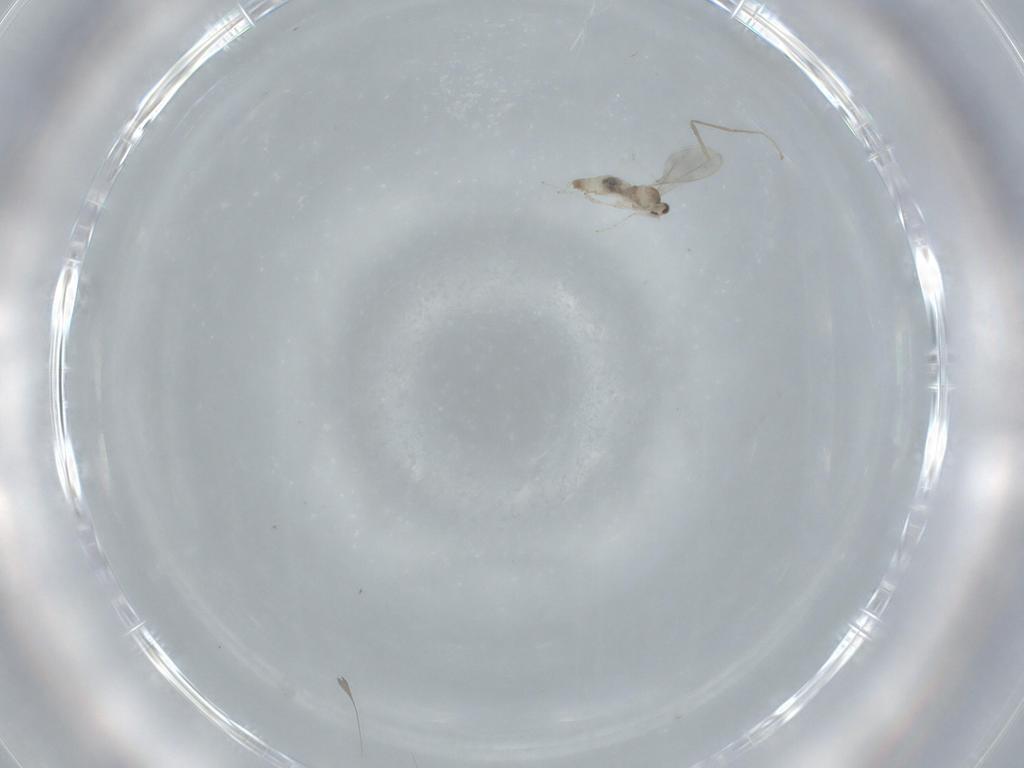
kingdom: Animalia
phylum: Arthropoda
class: Insecta
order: Diptera
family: Cecidomyiidae
